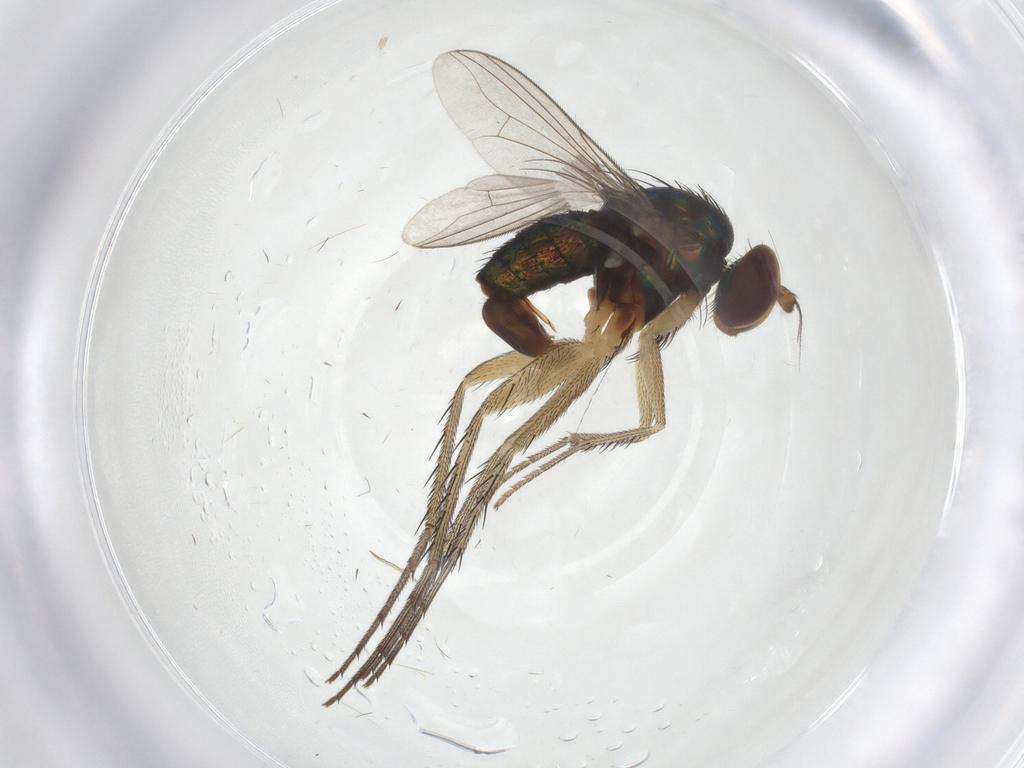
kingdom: Animalia
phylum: Arthropoda
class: Insecta
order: Diptera
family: Dolichopodidae
